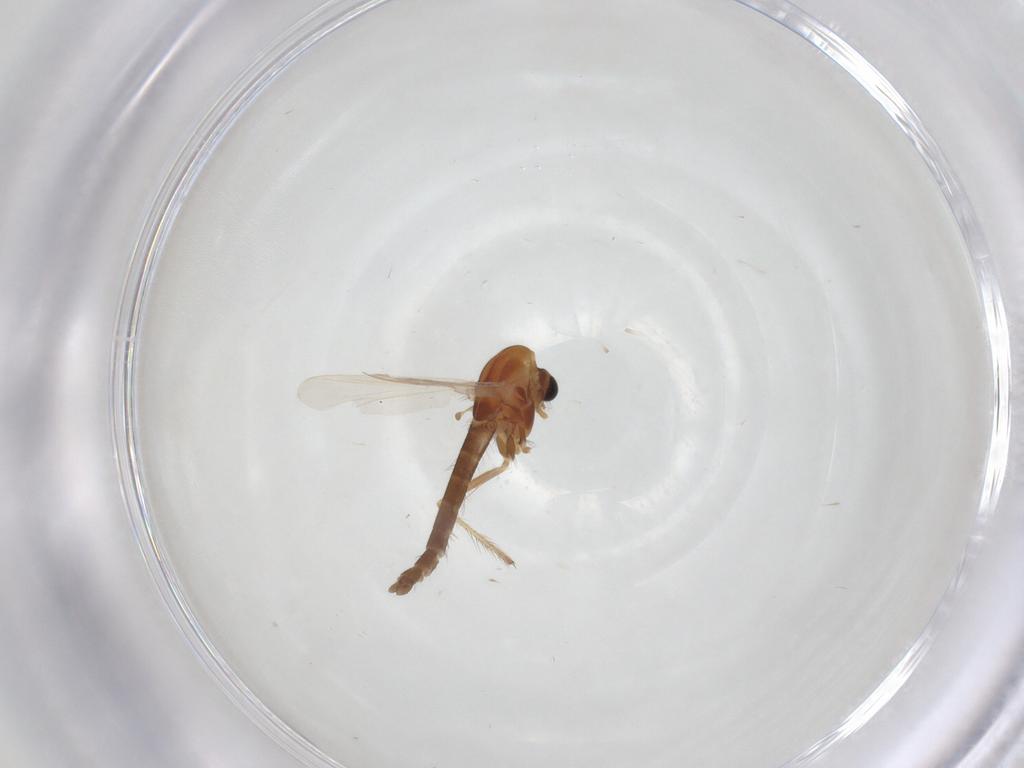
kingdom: Animalia
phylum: Arthropoda
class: Insecta
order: Diptera
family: Chironomidae
